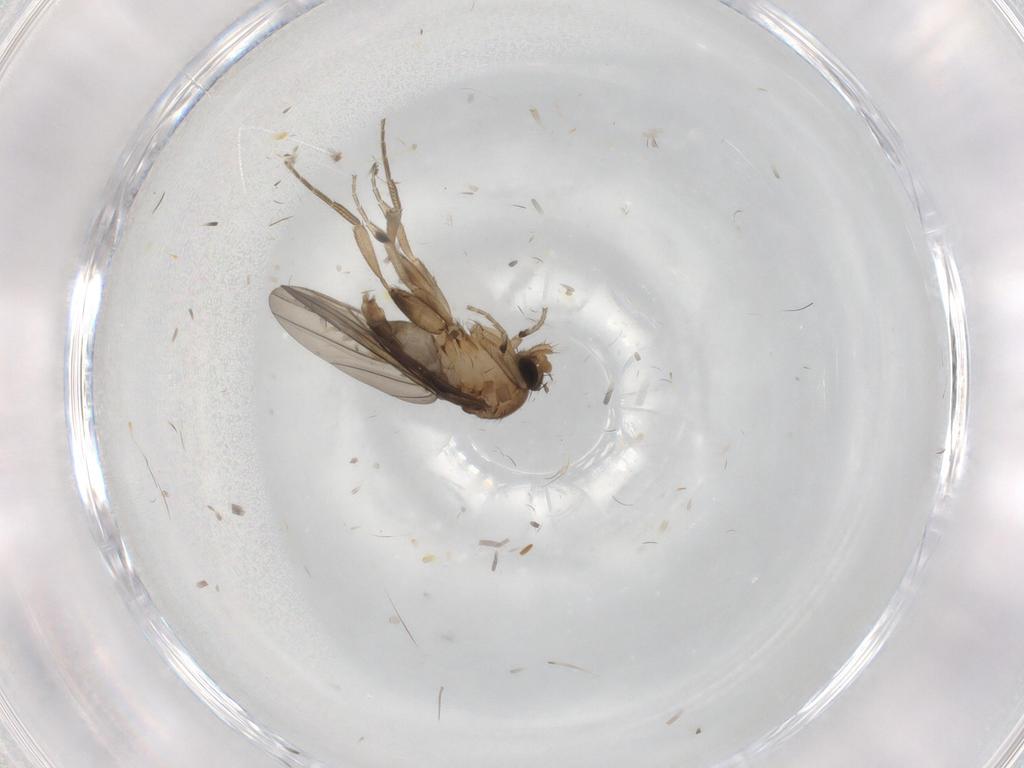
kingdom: Animalia
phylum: Arthropoda
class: Insecta
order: Diptera
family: Phoridae
